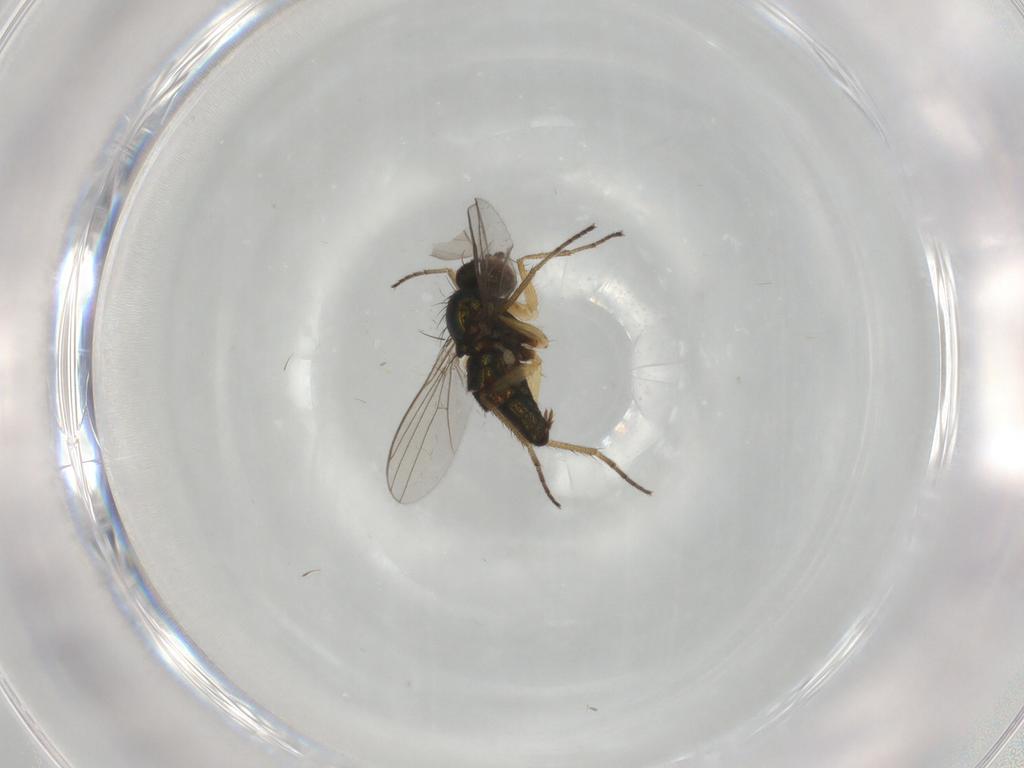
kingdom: Animalia
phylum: Arthropoda
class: Insecta
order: Diptera
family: Dolichopodidae
